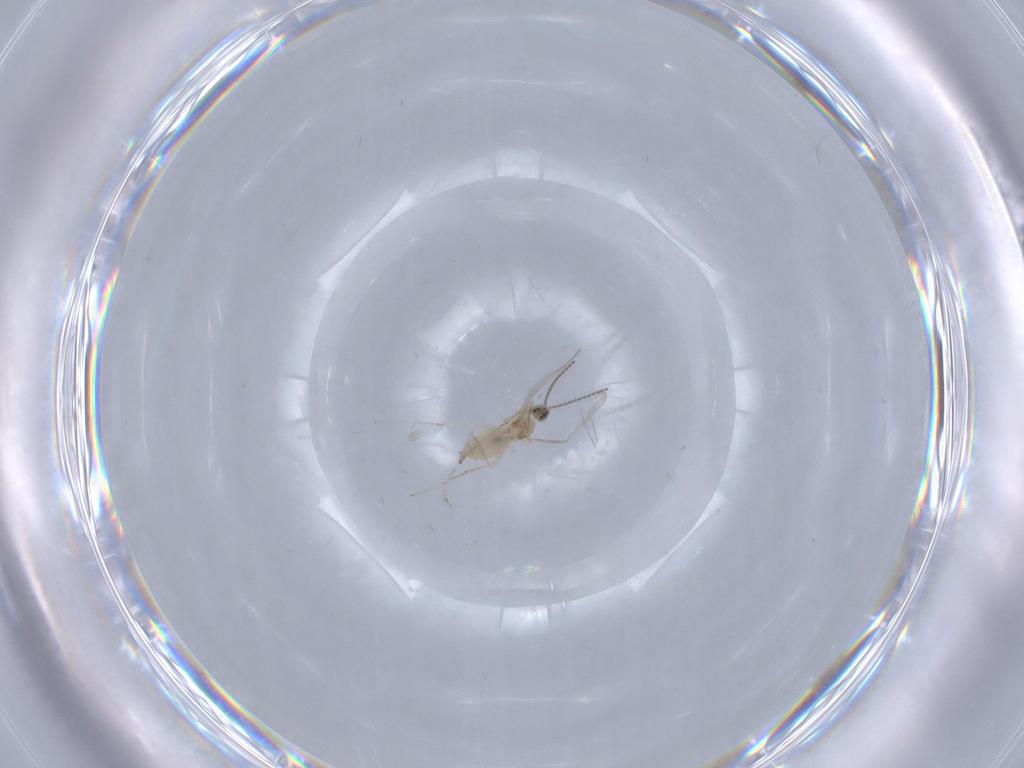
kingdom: Animalia
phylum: Arthropoda
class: Insecta
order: Diptera
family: Cecidomyiidae
